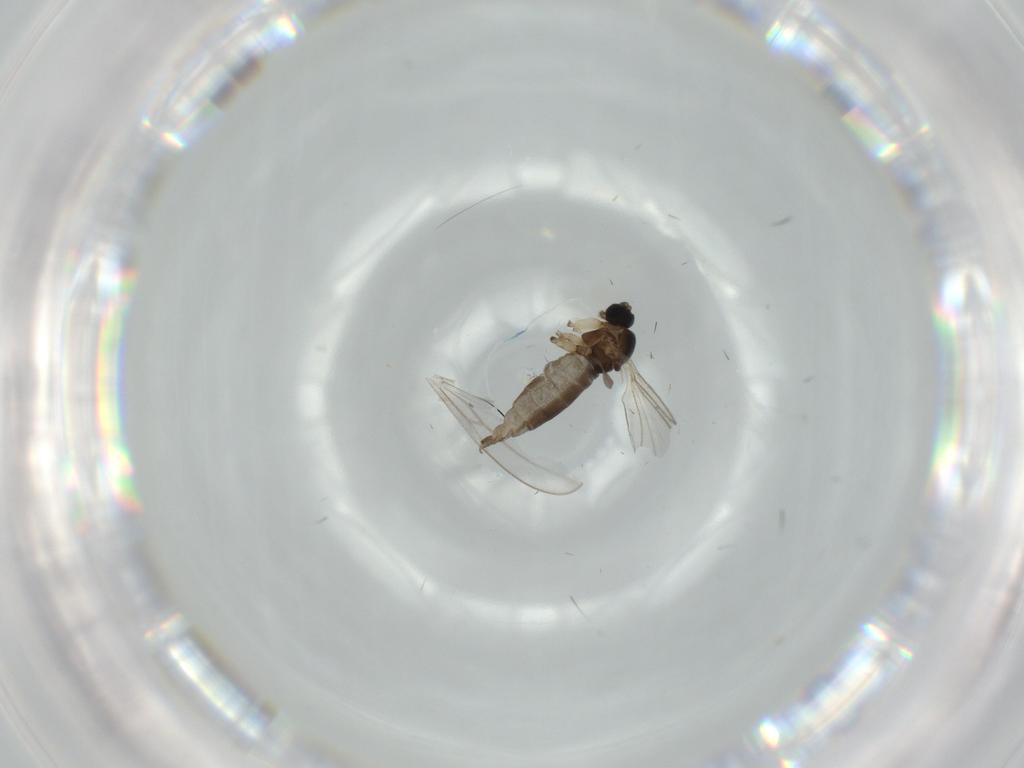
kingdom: Animalia
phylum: Arthropoda
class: Insecta
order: Diptera
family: Sciaridae
